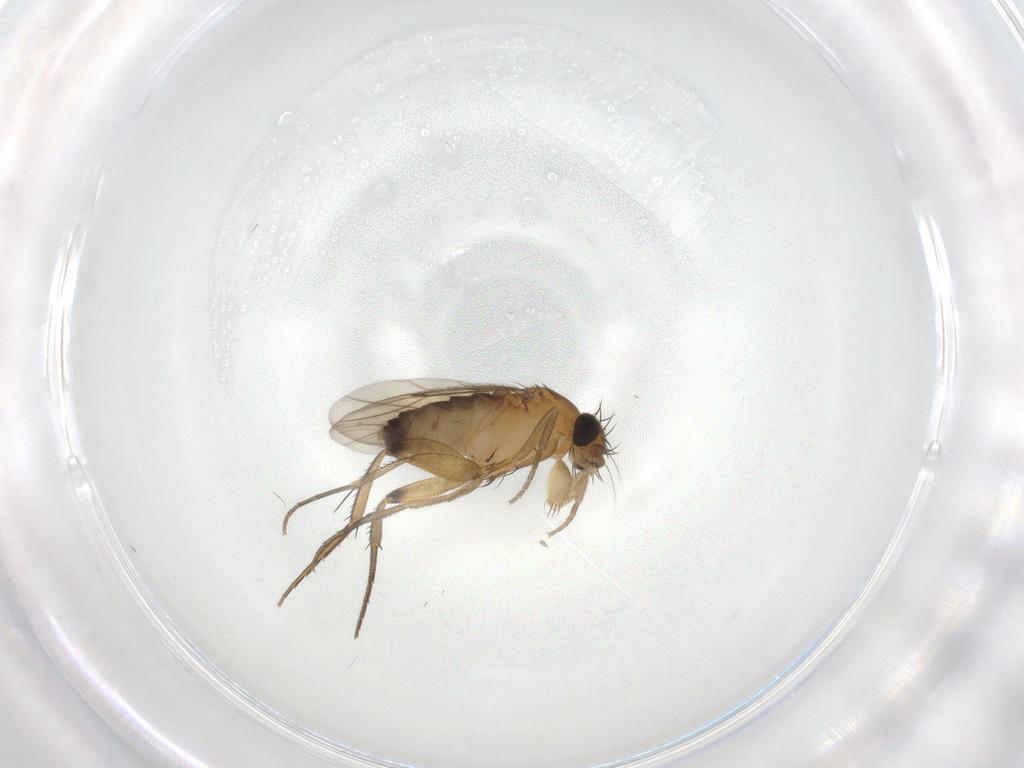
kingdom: Animalia
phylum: Arthropoda
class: Insecta
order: Diptera
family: Phoridae
